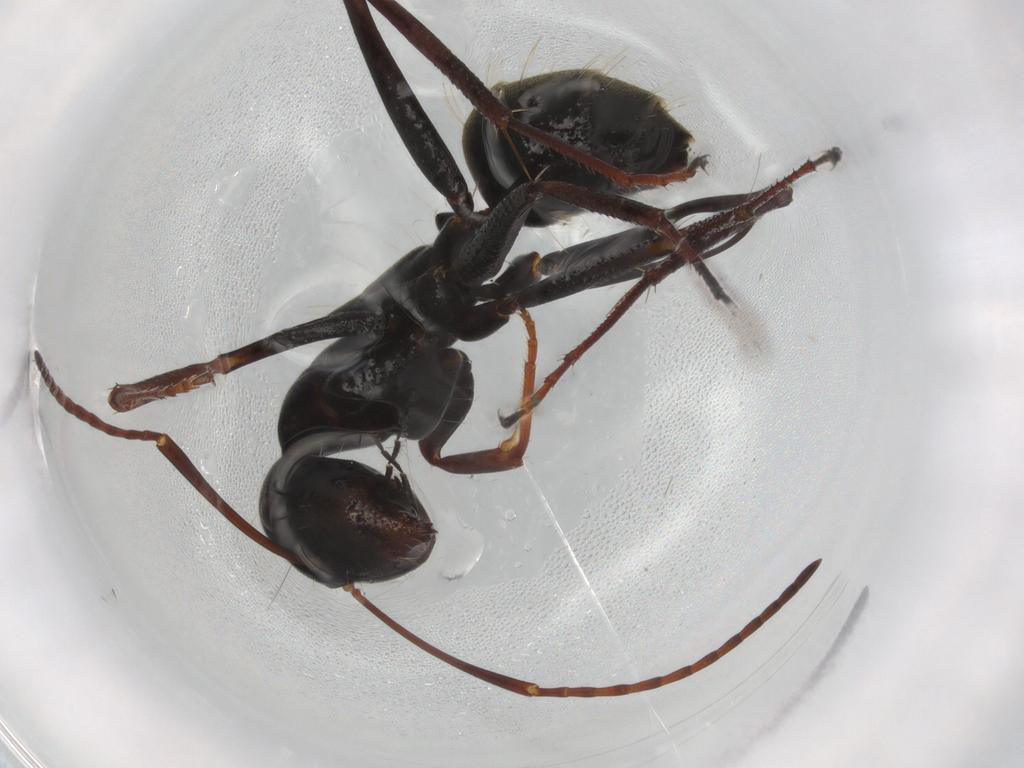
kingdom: Animalia
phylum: Arthropoda
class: Insecta
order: Hymenoptera
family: Formicidae
